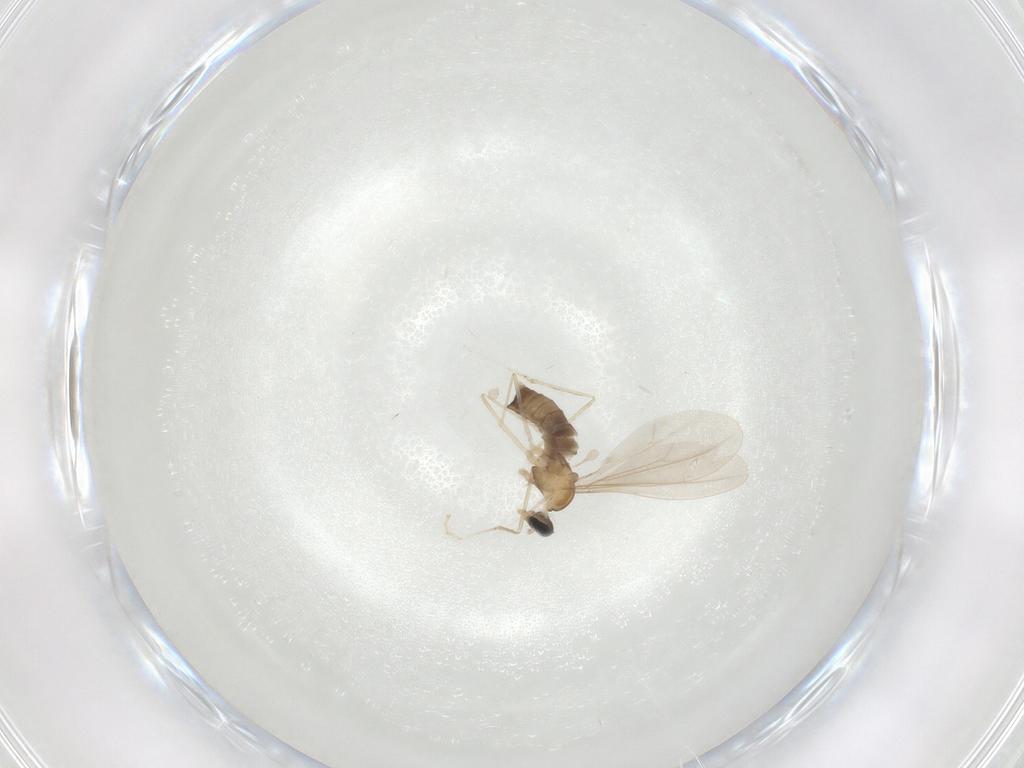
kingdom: Animalia
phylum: Arthropoda
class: Insecta
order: Diptera
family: Cecidomyiidae
